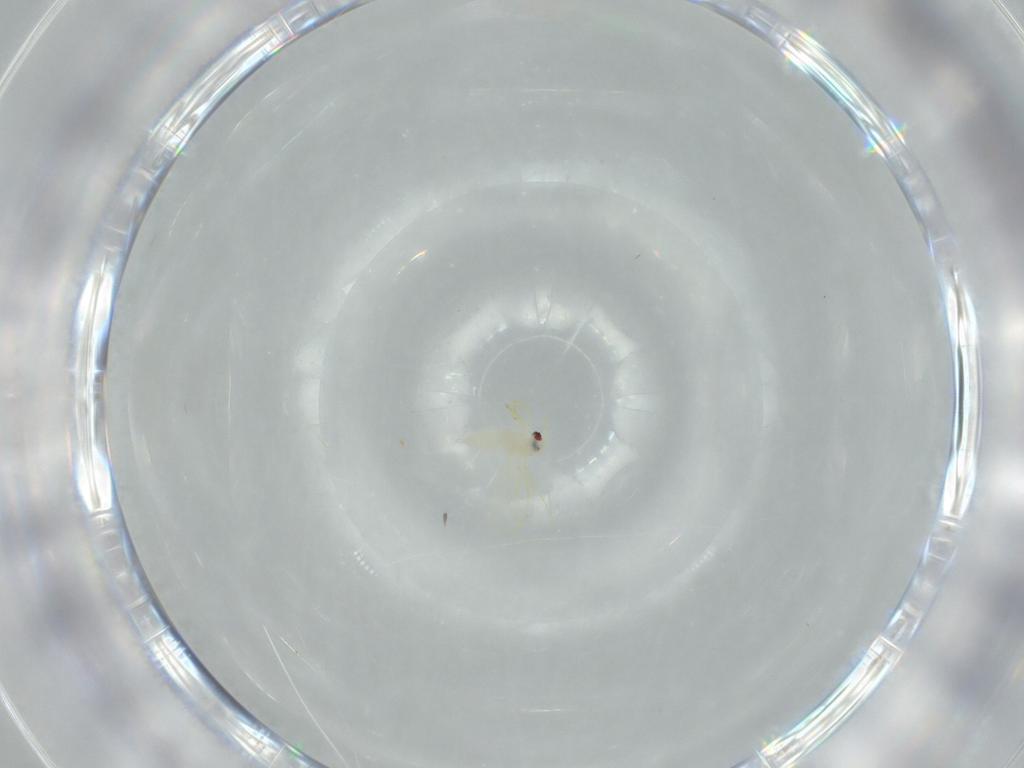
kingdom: Animalia
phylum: Arthropoda
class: Insecta
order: Hemiptera
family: Cercopidae
